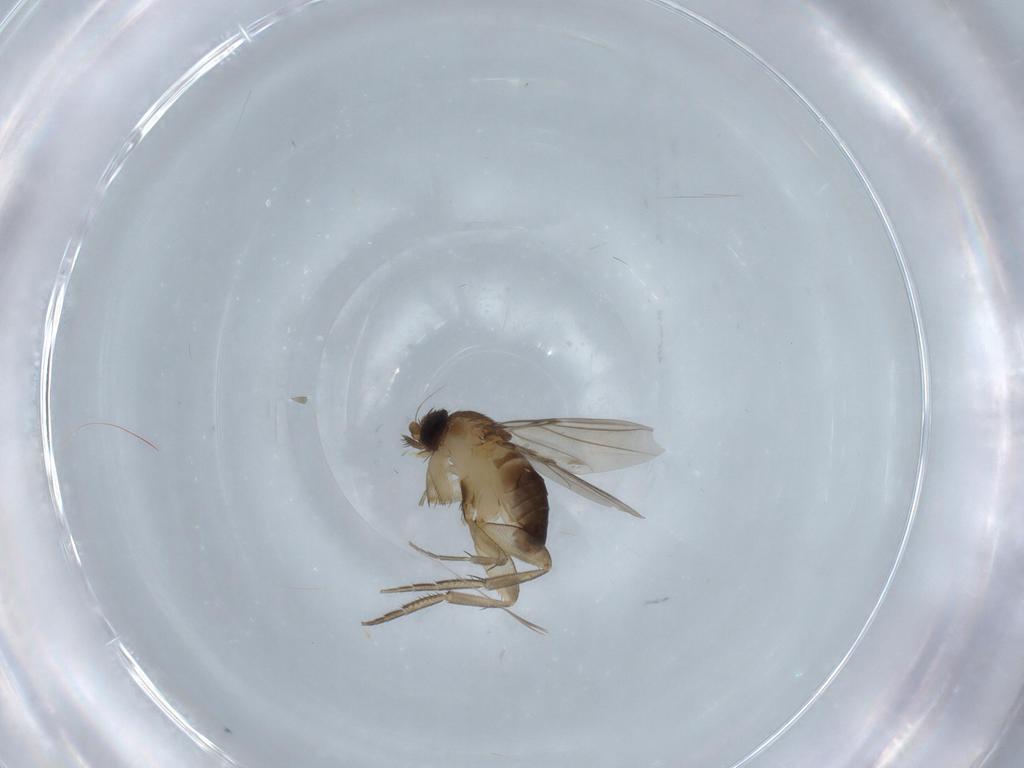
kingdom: Animalia
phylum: Arthropoda
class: Insecta
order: Diptera
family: Phoridae
